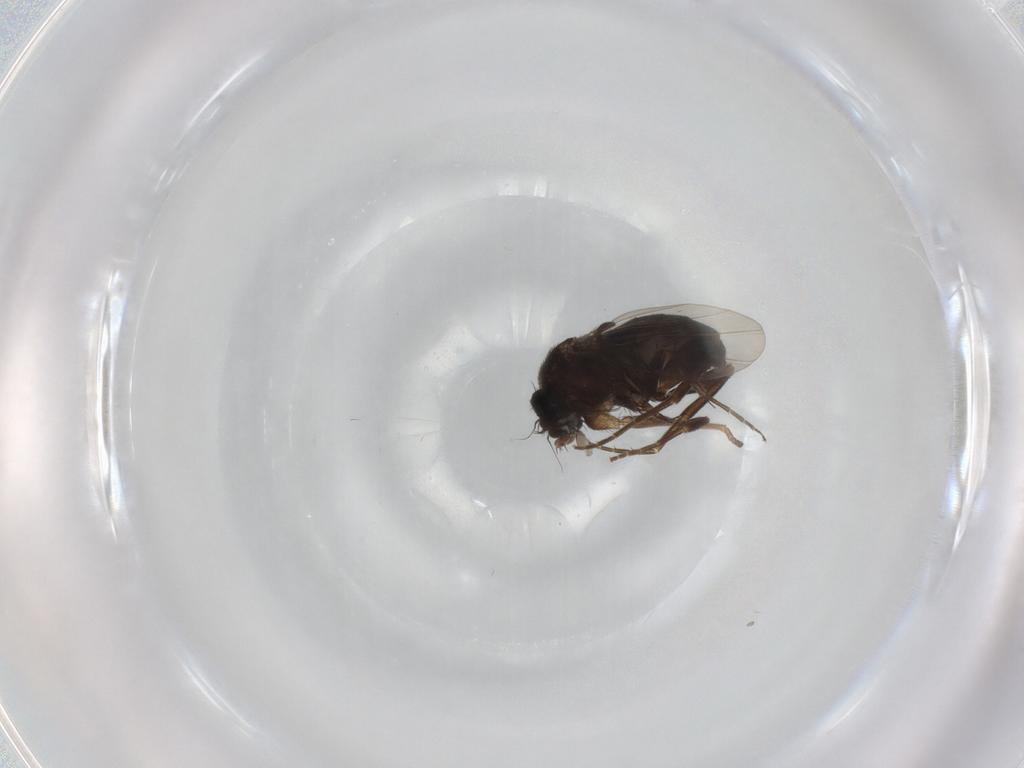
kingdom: Animalia
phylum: Arthropoda
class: Insecta
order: Diptera
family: Phoridae
